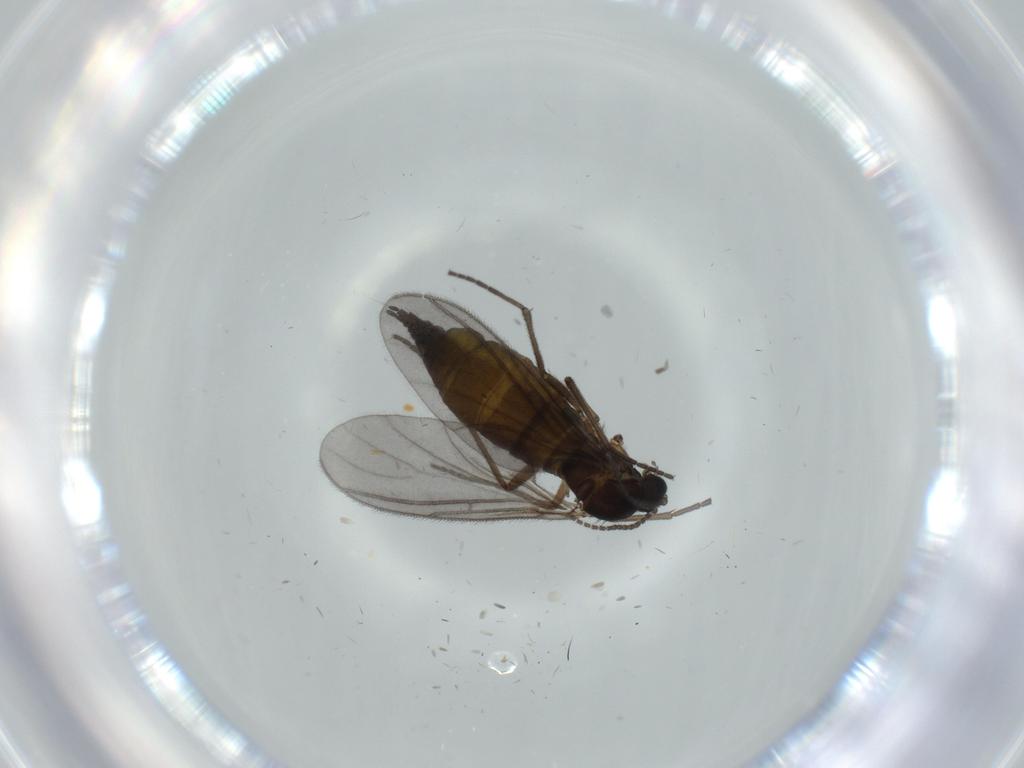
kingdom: Animalia
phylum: Arthropoda
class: Insecta
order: Diptera
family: Sciaridae
